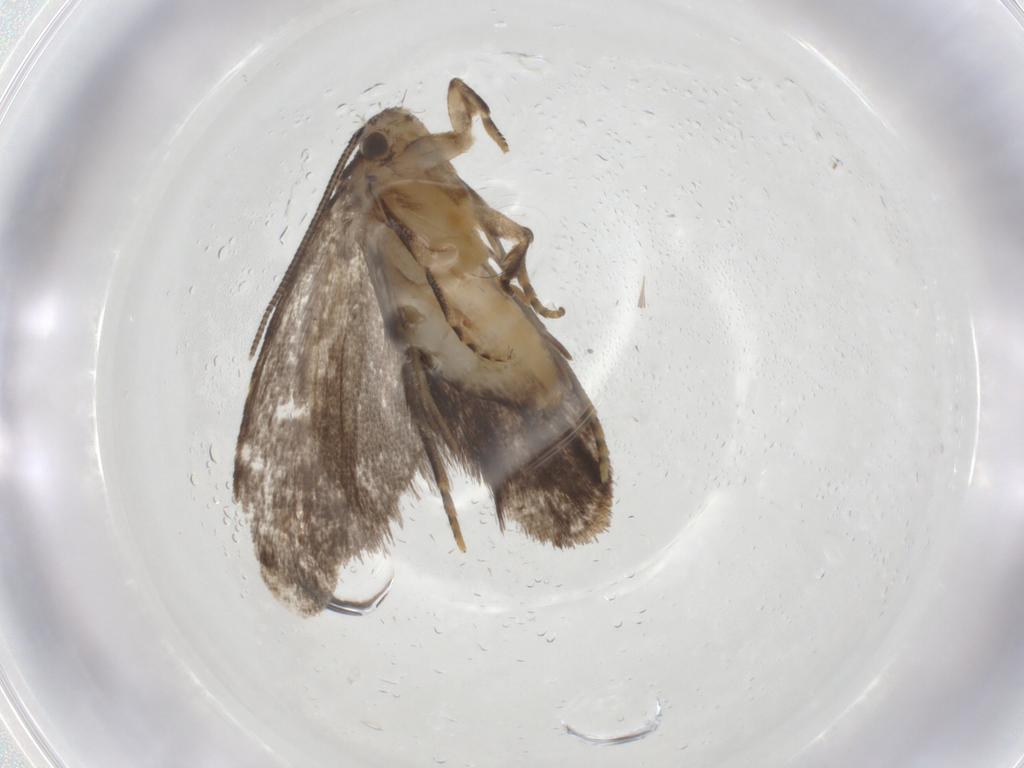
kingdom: Animalia
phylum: Arthropoda
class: Insecta
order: Lepidoptera
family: Dryadaulidae
